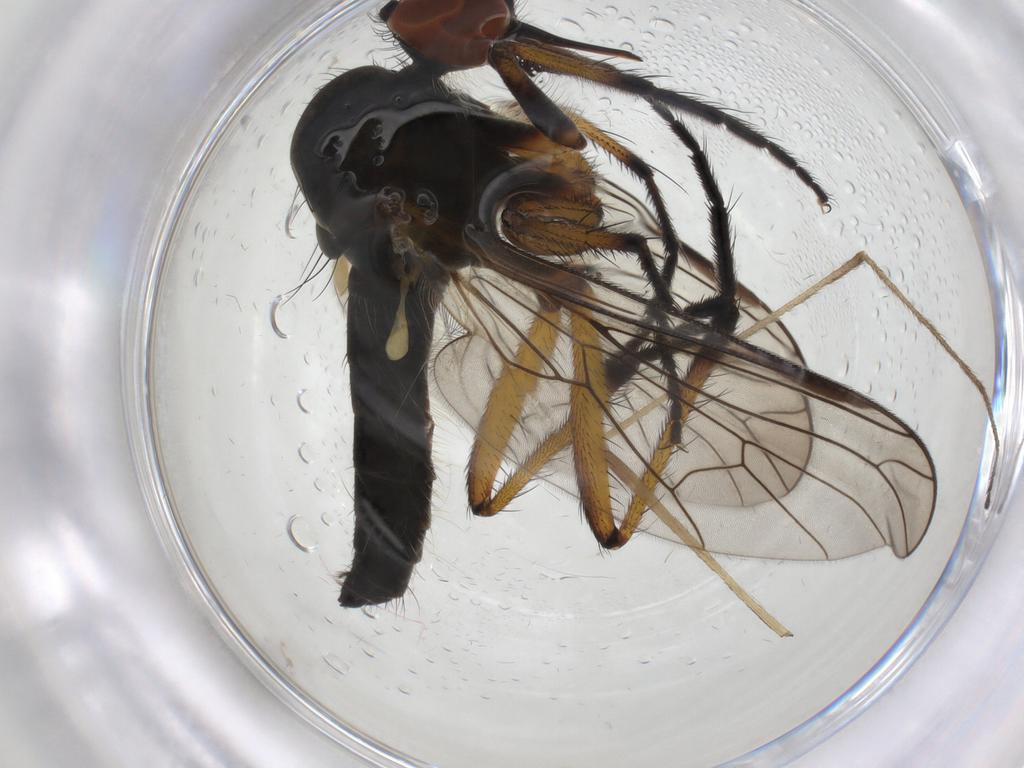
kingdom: Animalia
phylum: Arthropoda
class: Insecta
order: Diptera
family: Empididae
